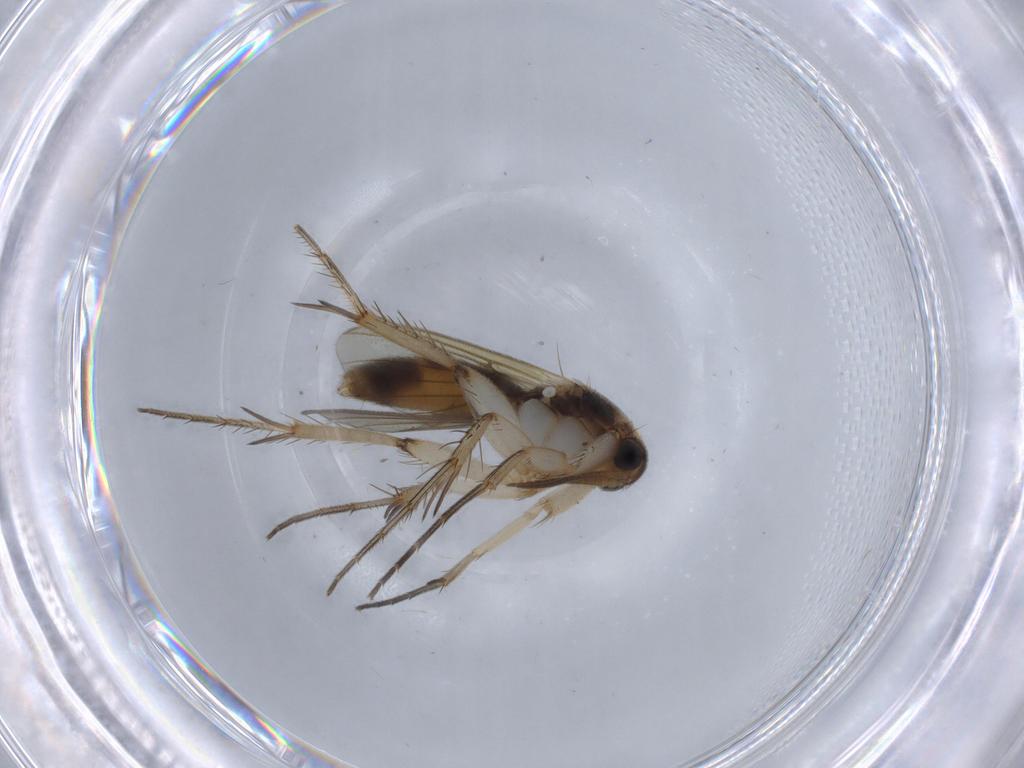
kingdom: Animalia
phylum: Arthropoda
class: Insecta
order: Diptera
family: Mycetophilidae
